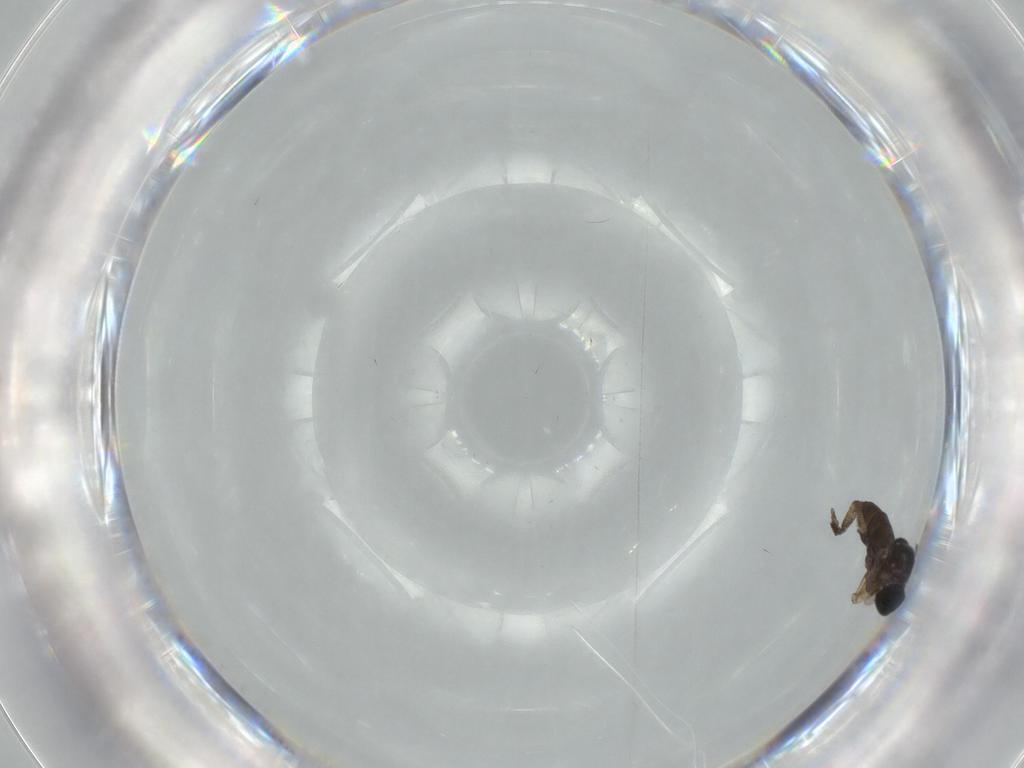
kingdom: Animalia
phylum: Arthropoda
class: Insecta
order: Diptera
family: Sciaridae
